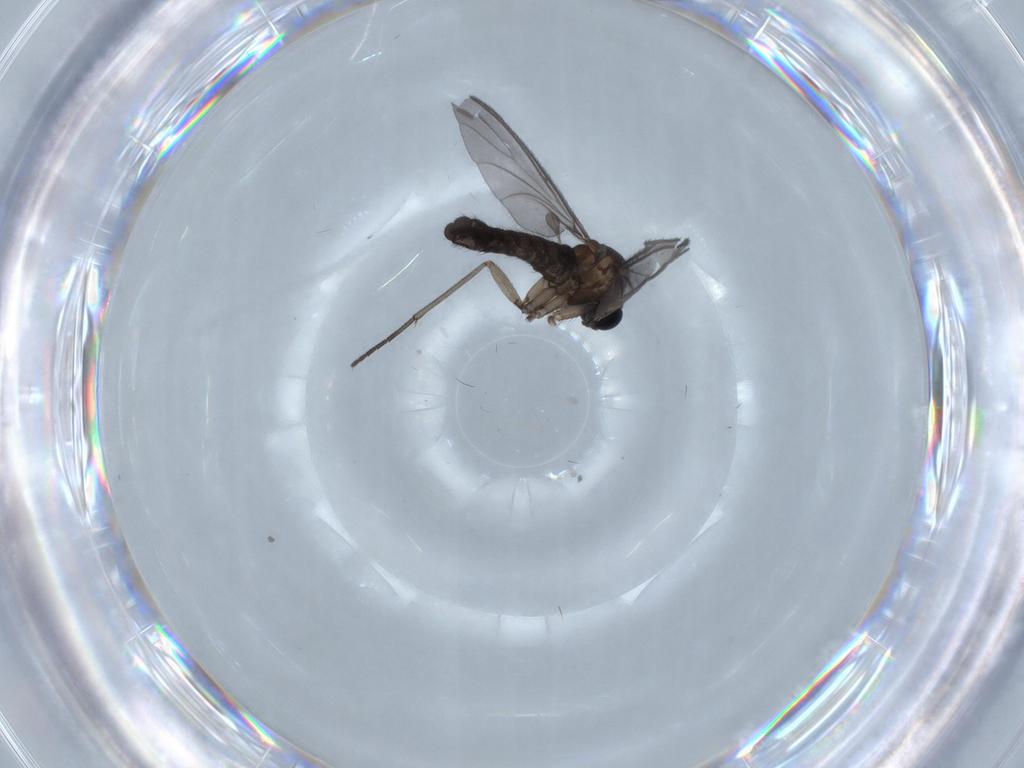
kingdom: Animalia
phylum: Arthropoda
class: Insecta
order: Diptera
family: Sciaridae
